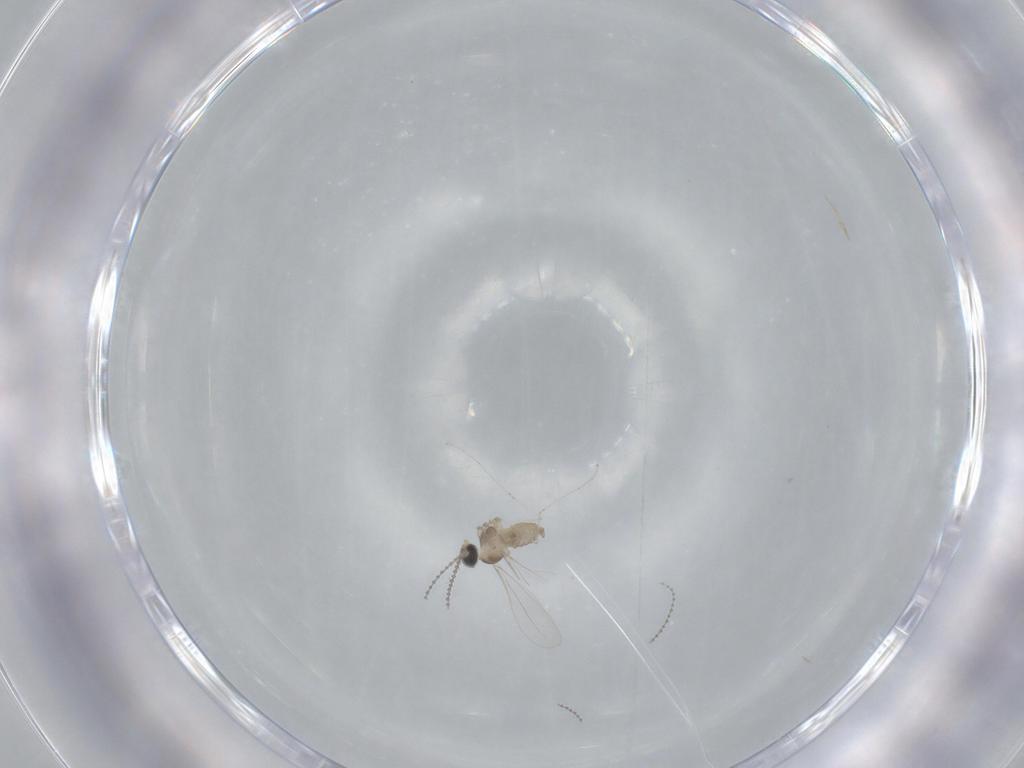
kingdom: Animalia
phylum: Arthropoda
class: Insecta
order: Diptera
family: Cecidomyiidae
